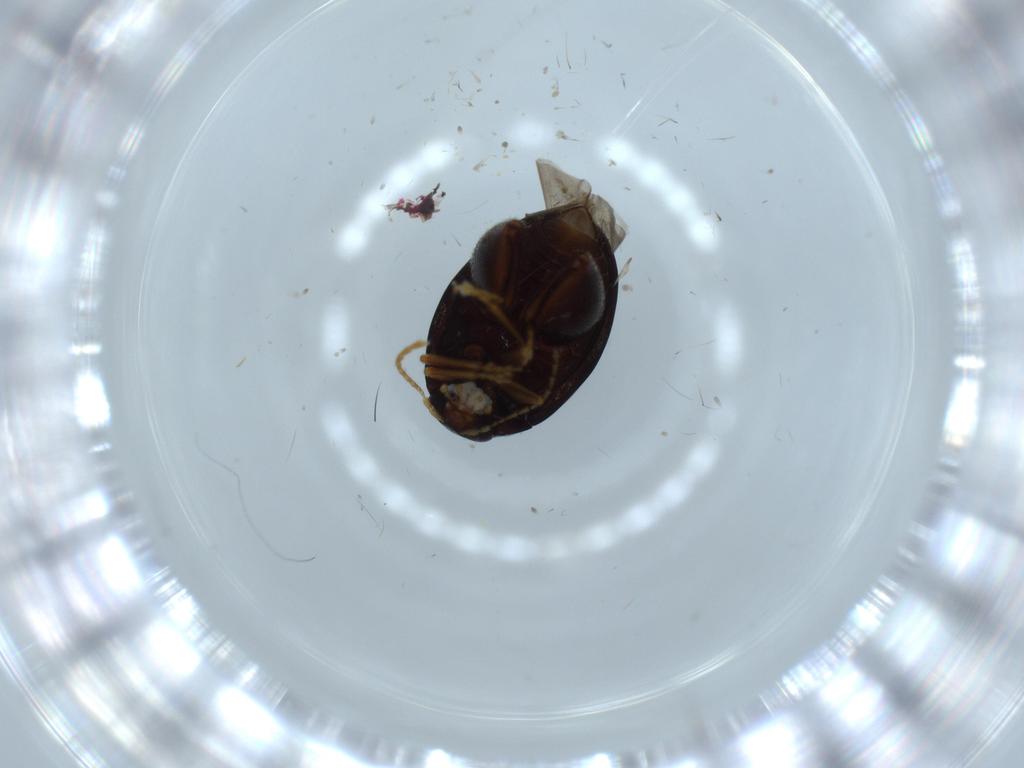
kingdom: Animalia
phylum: Arthropoda
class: Insecta
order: Coleoptera
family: Chrysomelidae
